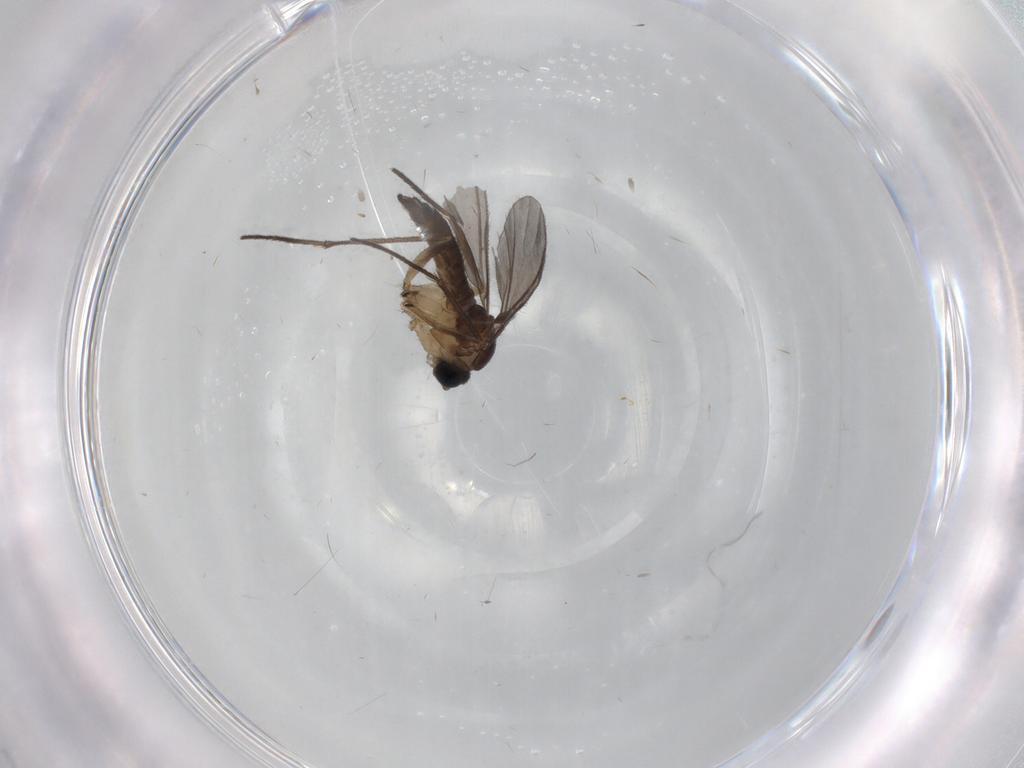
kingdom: Animalia
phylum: Arthropoda
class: Insecta
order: Diptera
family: Sciaridae
